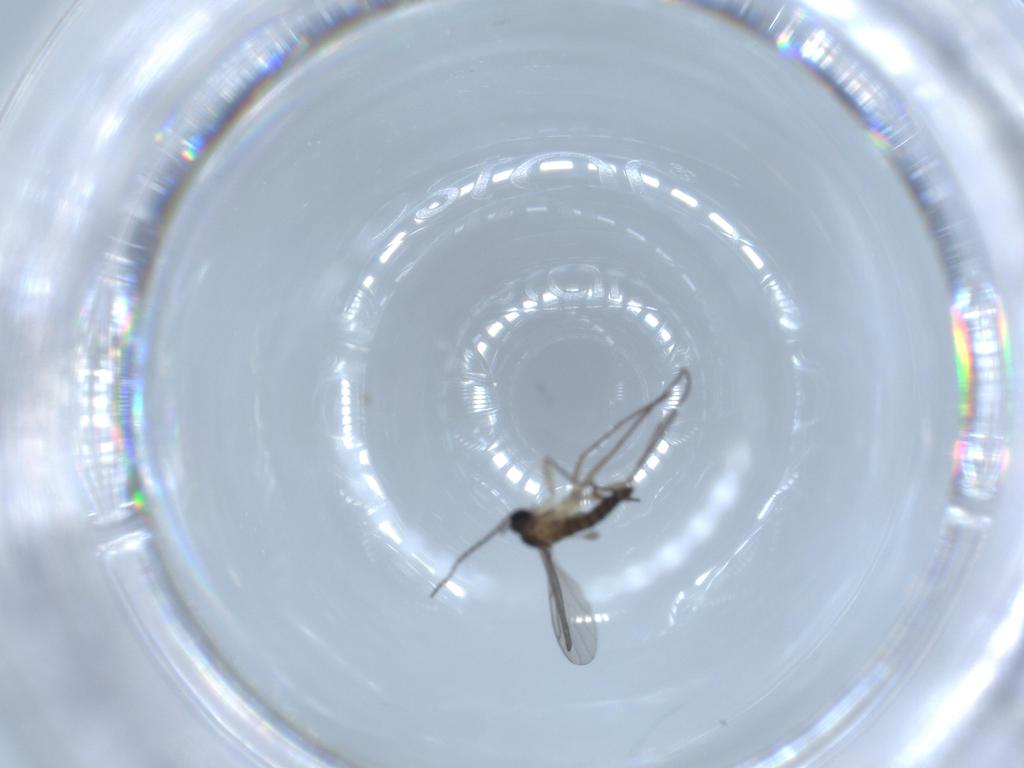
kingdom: Animalia
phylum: Arthropoda
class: Insecta
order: Diptera
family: Sciaridae
